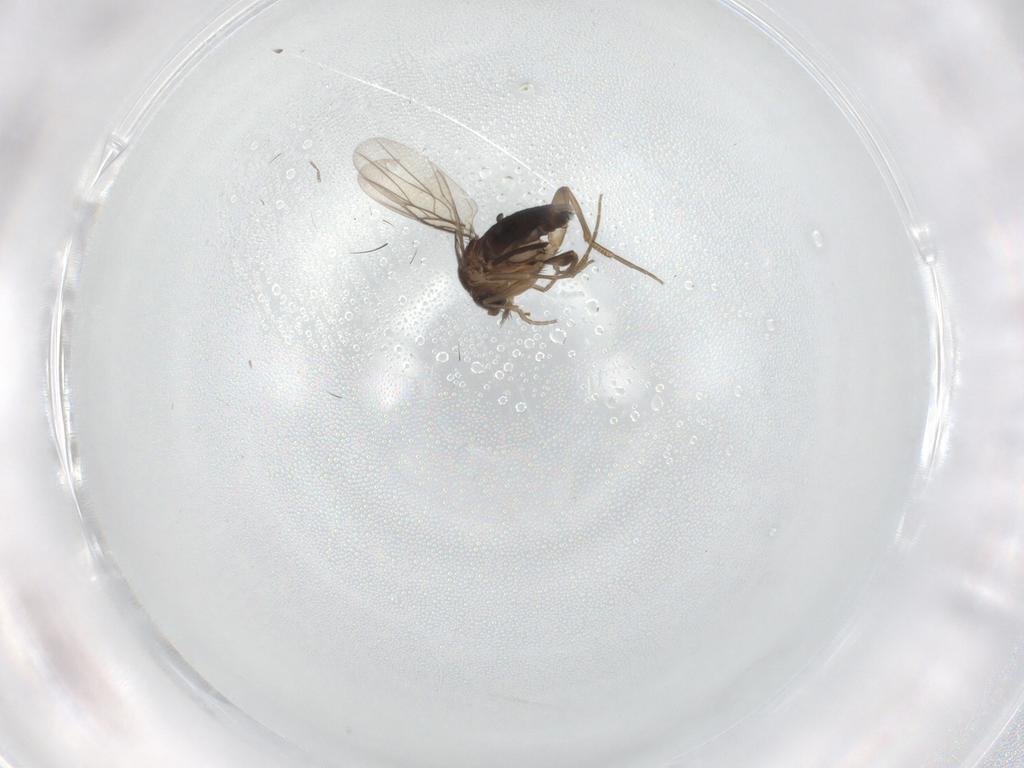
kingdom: Animalia
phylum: Arthropoda
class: Insecta
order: Diptera
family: Phoridae
